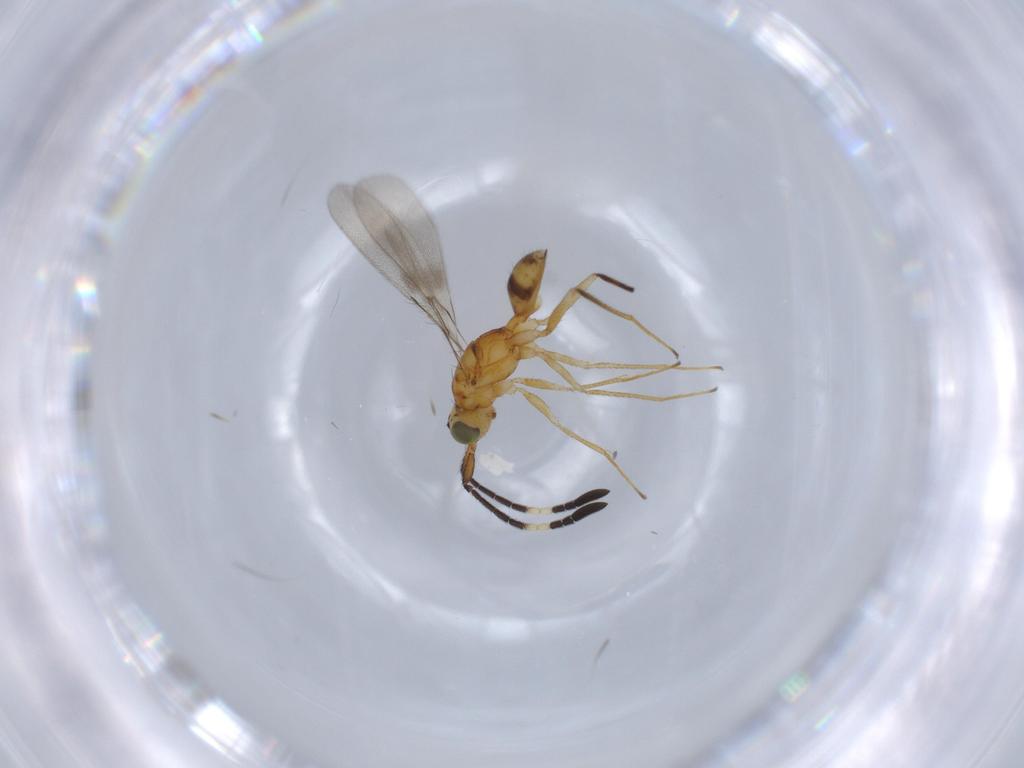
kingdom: Animalia
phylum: Arthropoda
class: Insecta
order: Hymenoptera
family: Mymaridae
